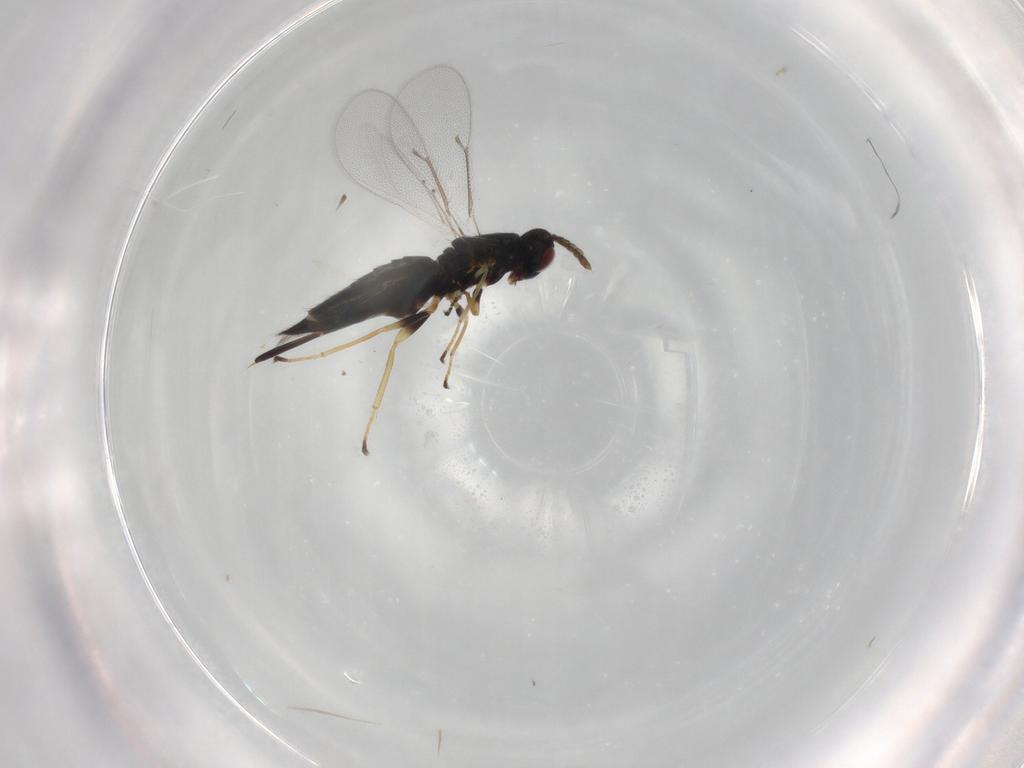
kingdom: Animalia
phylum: Arthropoda
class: Insecta
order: Hymenoptera
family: Eulophidae
